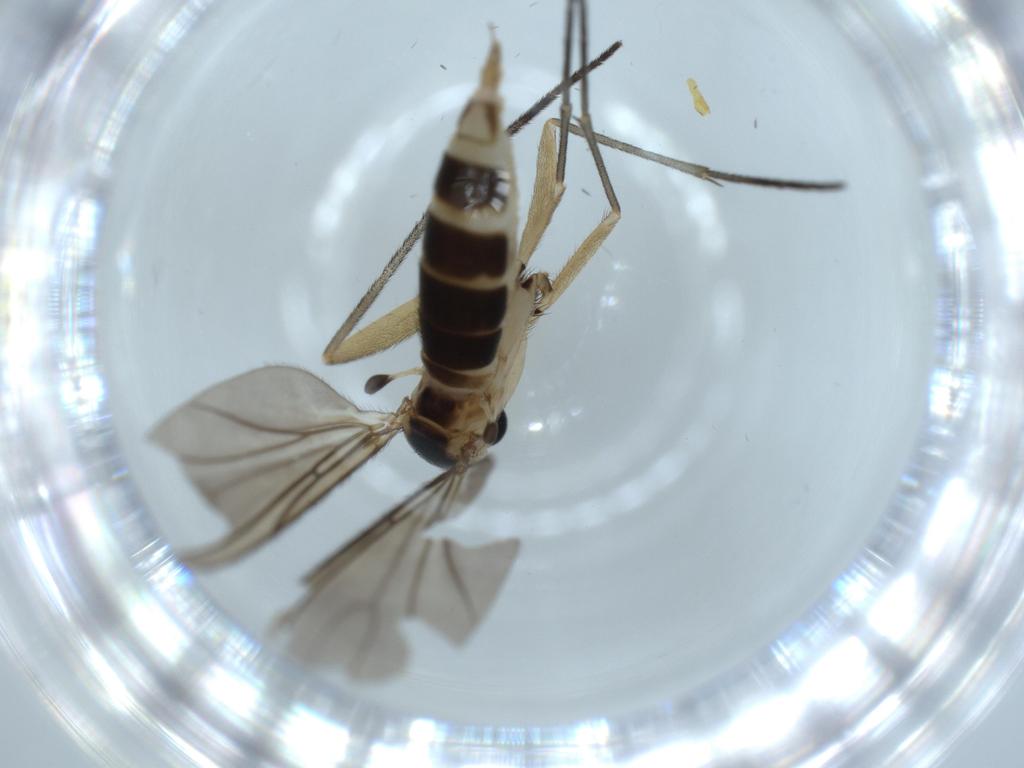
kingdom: Animalia
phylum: Arthropoda
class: Insecta
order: Diptera
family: Sciaridae
